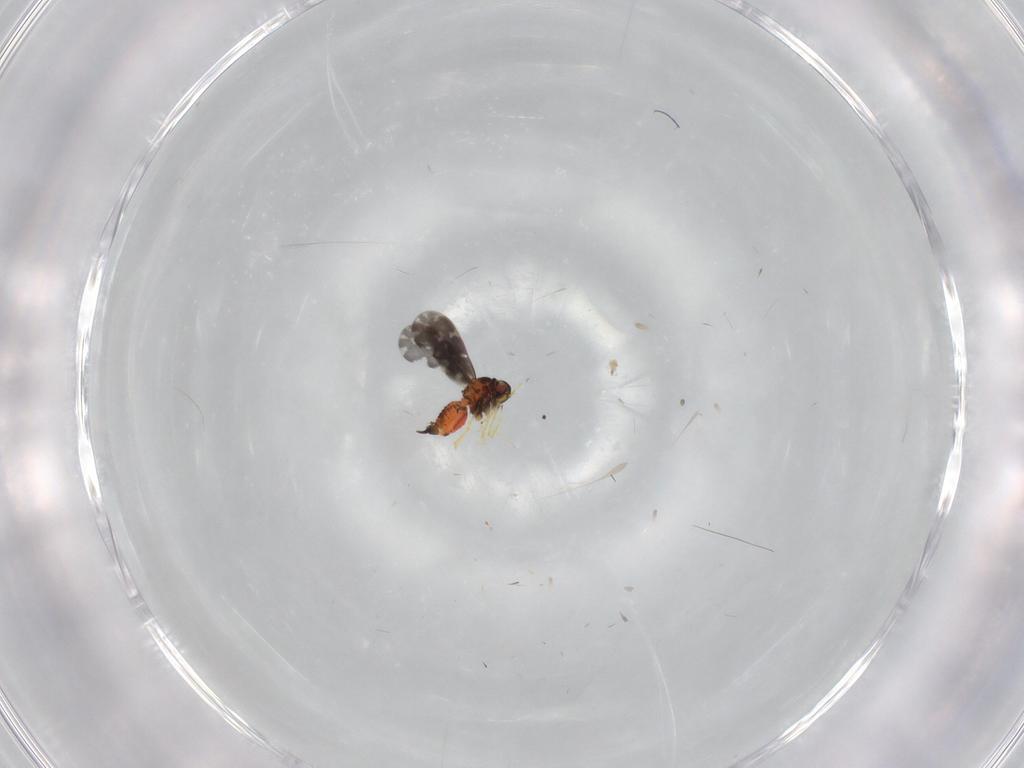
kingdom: Animalia
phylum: Arthropoda
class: Insecta
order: Hemiptera
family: Aleyrodidae
